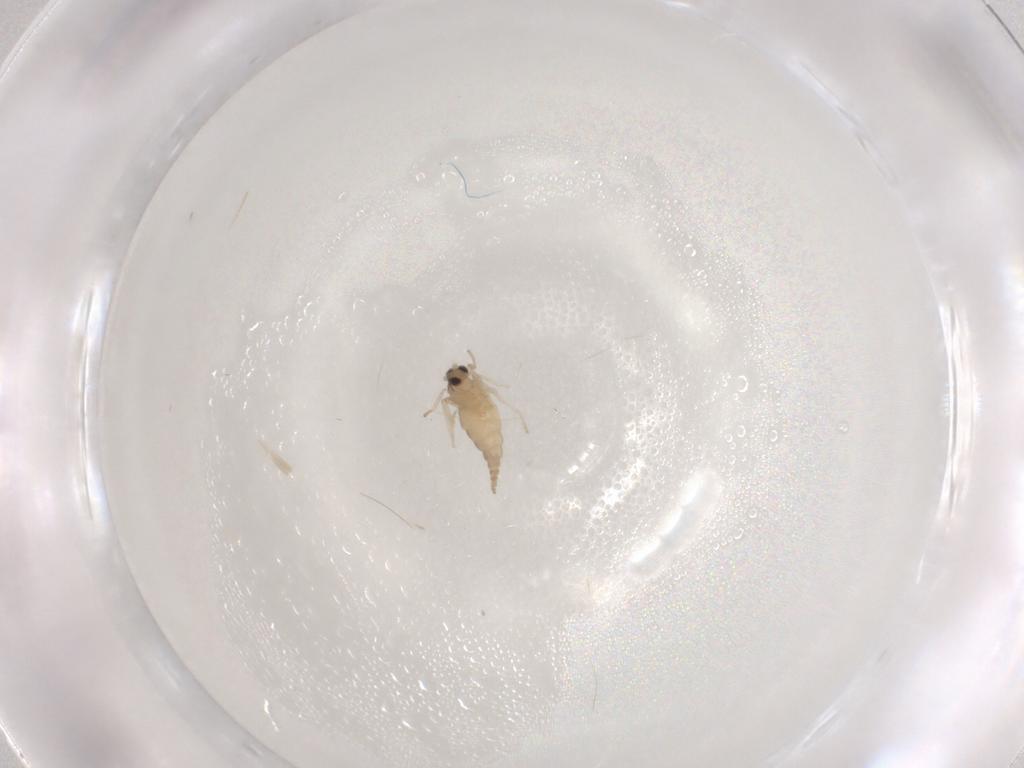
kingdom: Animalia
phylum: Arthropoda
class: Insecta
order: Diptera
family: Cecidomyiidae
